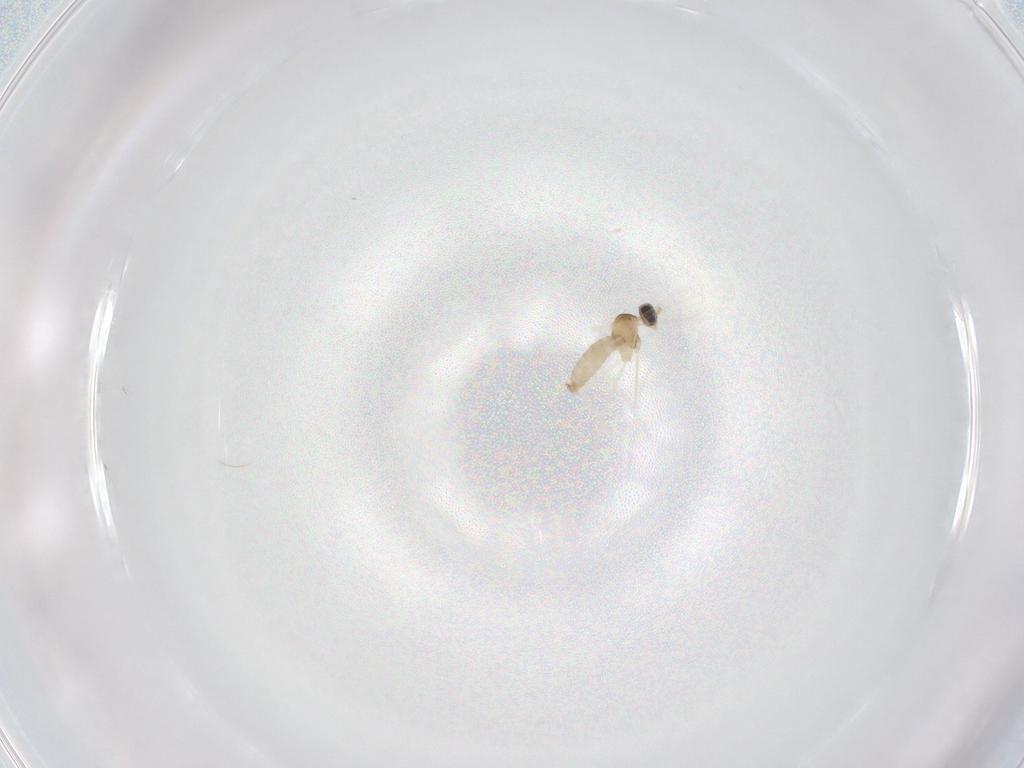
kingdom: Animalia
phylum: Arthropoda
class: Insecta
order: Diptera
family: Cecidomyiidae
